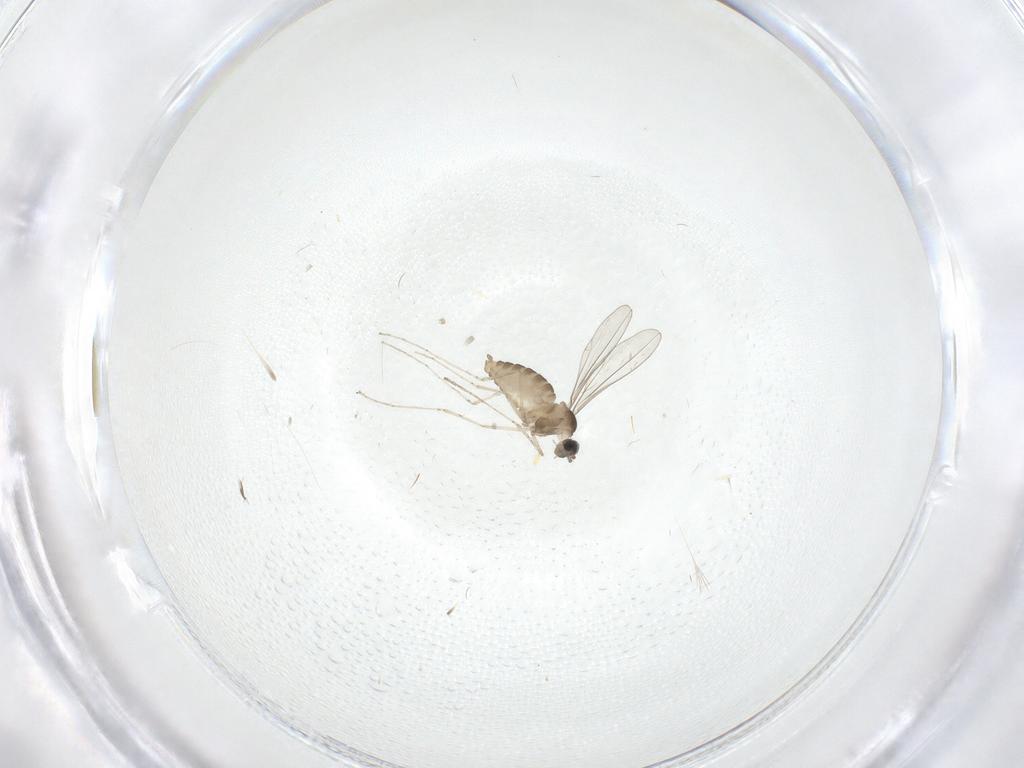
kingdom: Animalia
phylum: Arthropoda
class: Insecta
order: Diptera
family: Cecidomyiidae
